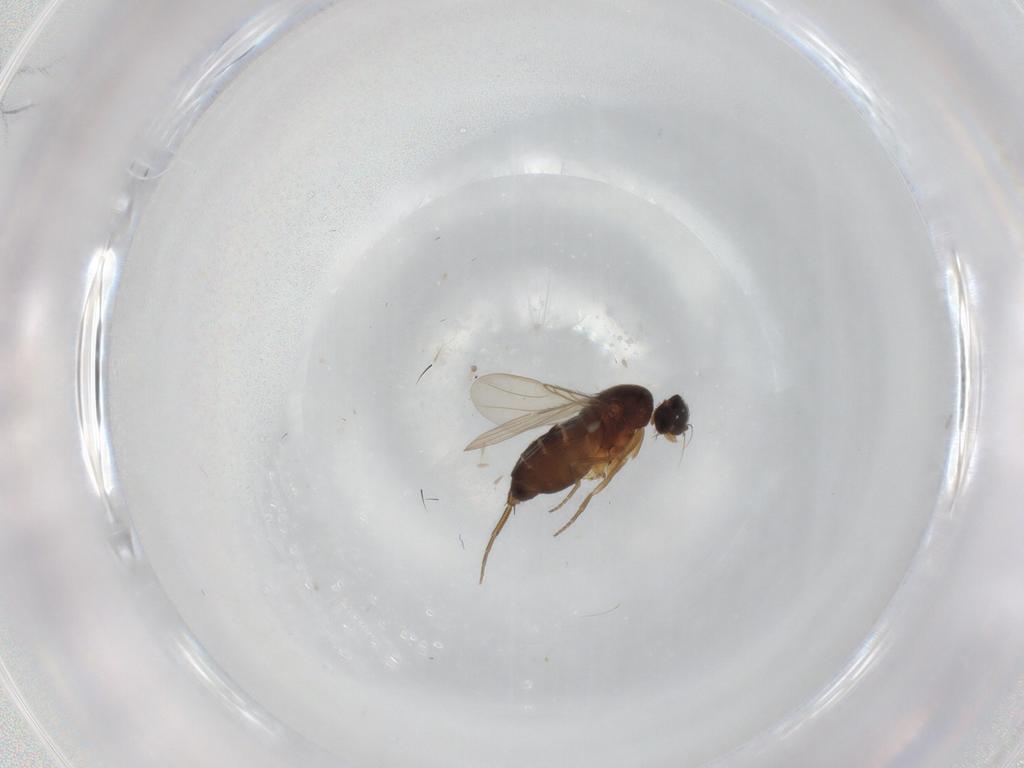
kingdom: Animalia
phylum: Arthropoda
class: Insecta
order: Diptera
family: Phoridae
